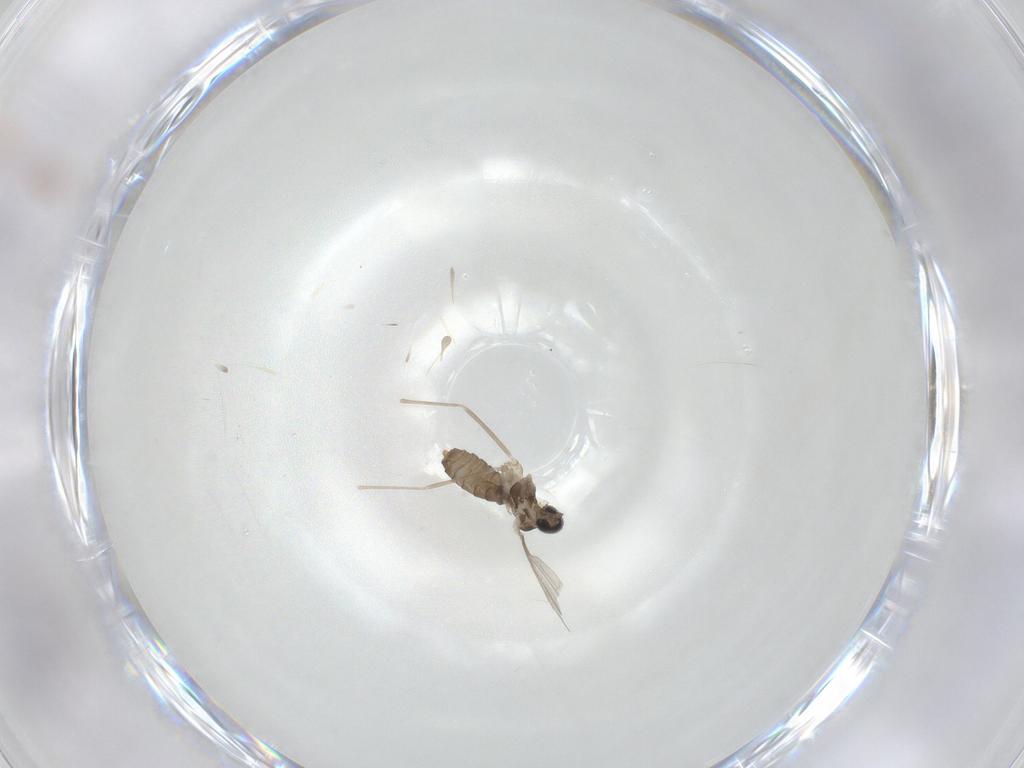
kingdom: Animalia
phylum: Arthropoda
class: Insecta
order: Diptera
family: Cecidomyiidae
